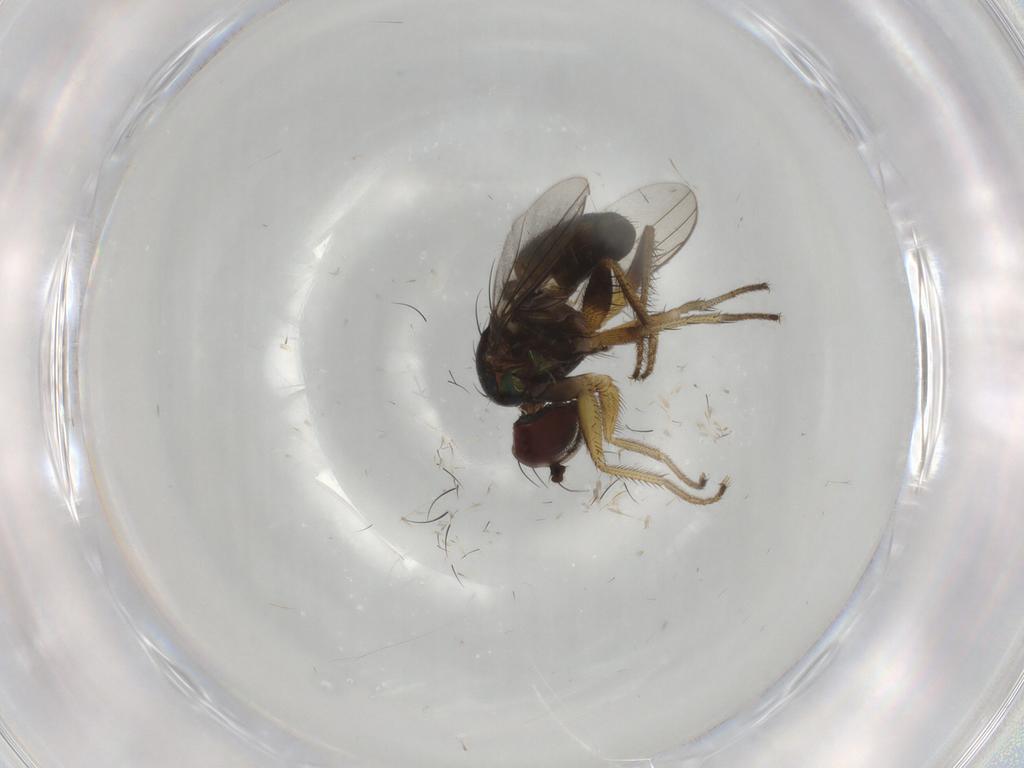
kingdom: Animalia
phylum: Arthropoda
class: Insecta
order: Diptera
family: Dolichopodidae
